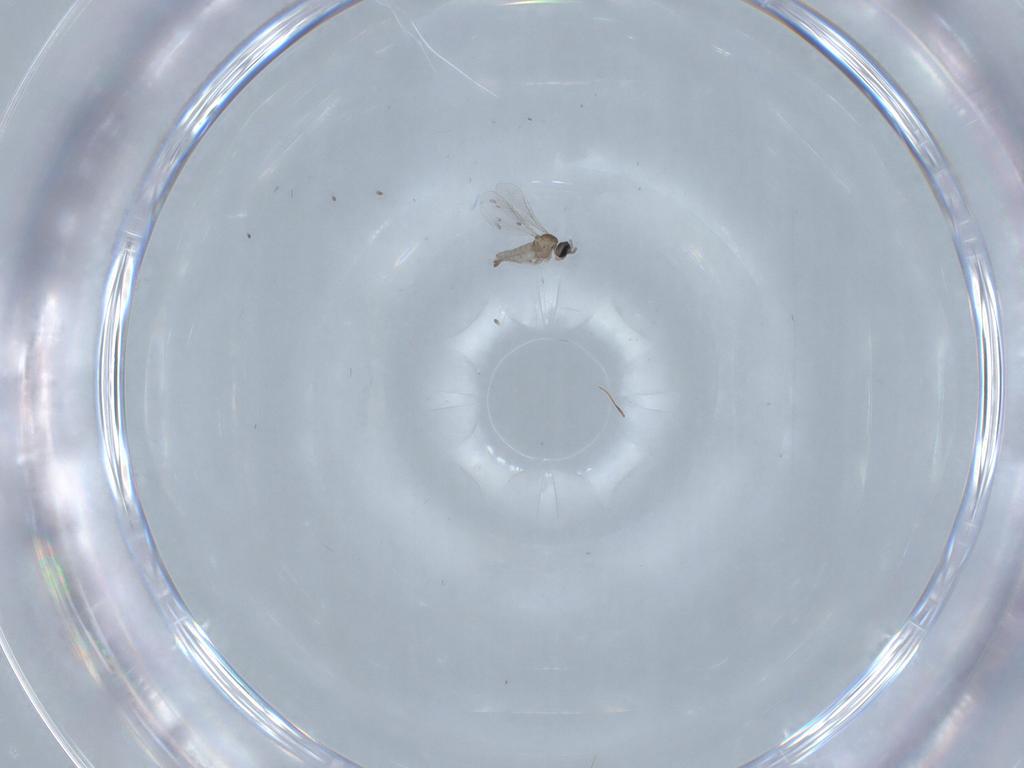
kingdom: Animalia
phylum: Arthropoda
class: Insecta
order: Diptera
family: Cecidomyiidae
